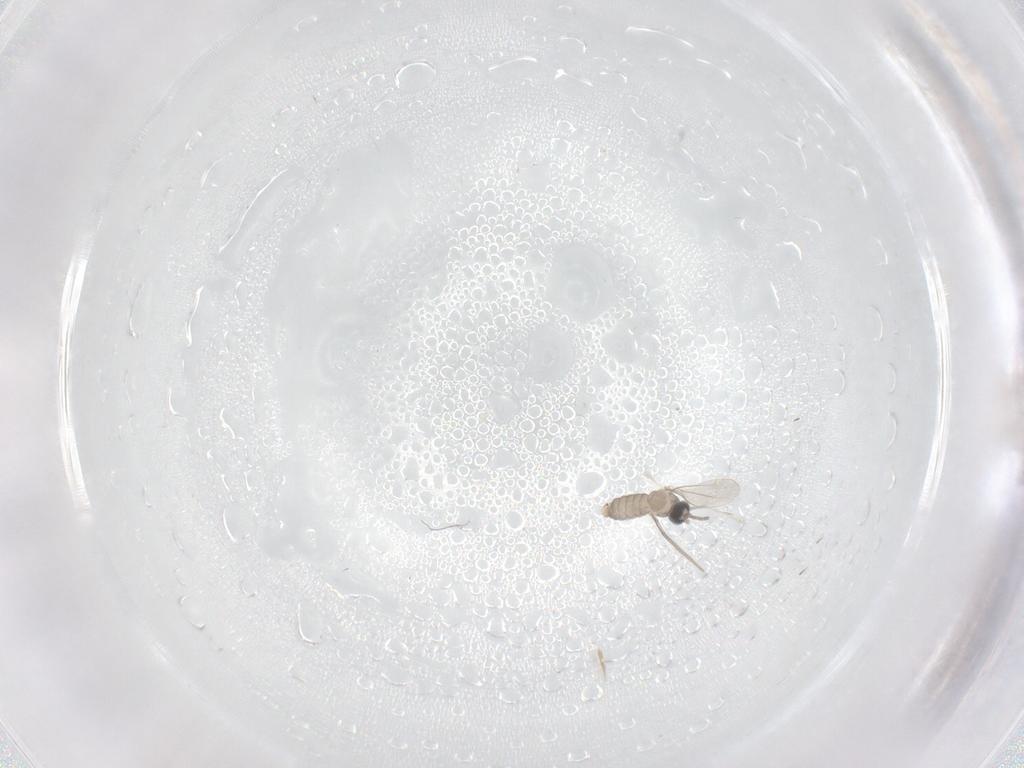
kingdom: Animalia
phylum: Arthropoda
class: Insecta
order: Diptera
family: Cecidomyiidae
